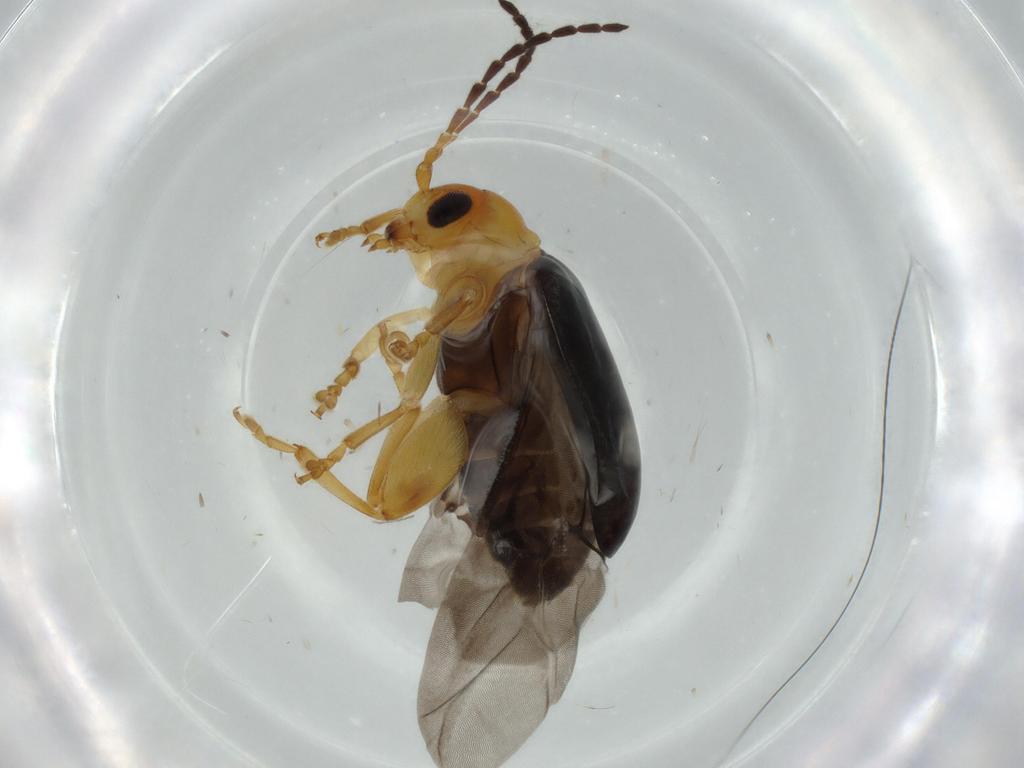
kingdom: Animalia
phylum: Arthropoda
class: Insecta
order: Coleoptera
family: Chrysomelidae
